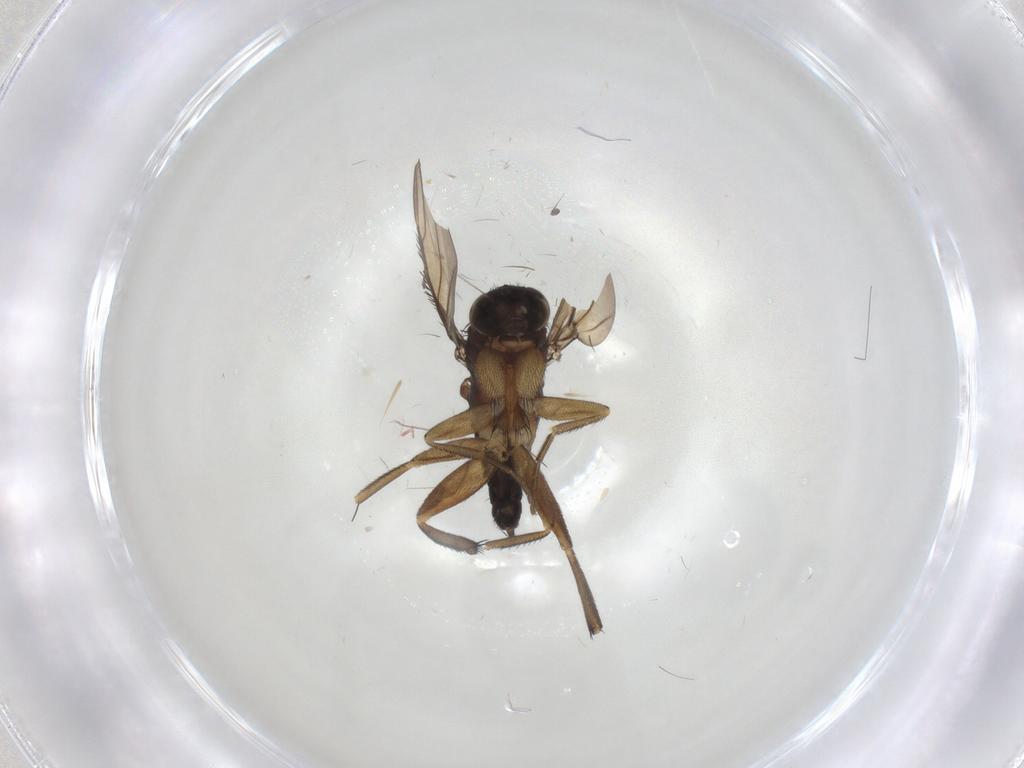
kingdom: Animalia
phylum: Arthropoda
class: Insecta
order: Diptera
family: Phoridae
